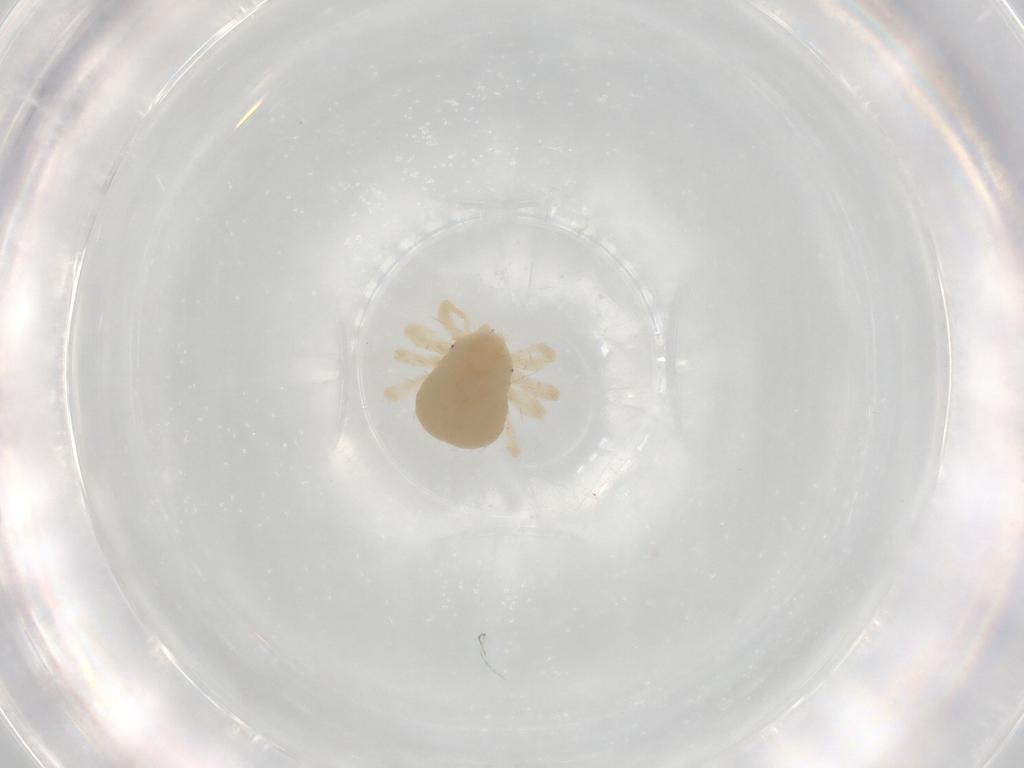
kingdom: Animalia
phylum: Arthropoda
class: Arachnida
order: Trombidiformes
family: Anystidae
